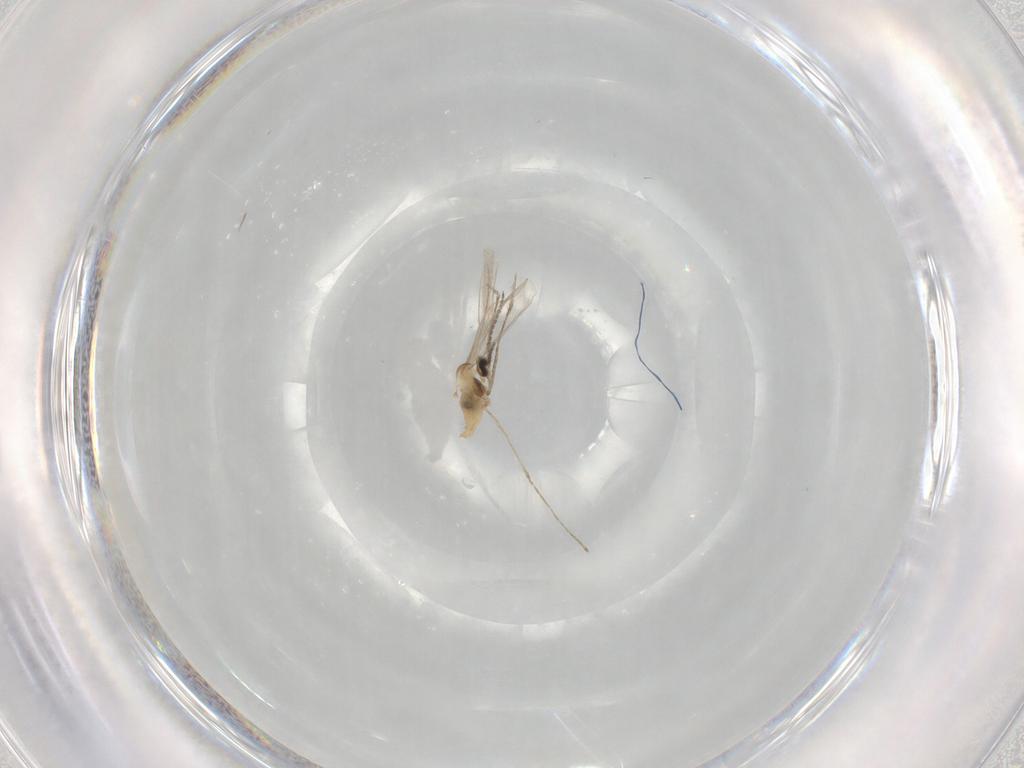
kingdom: Animalia
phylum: Arthropoda
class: Insecta
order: Diptera
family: Cecidomyiidae
